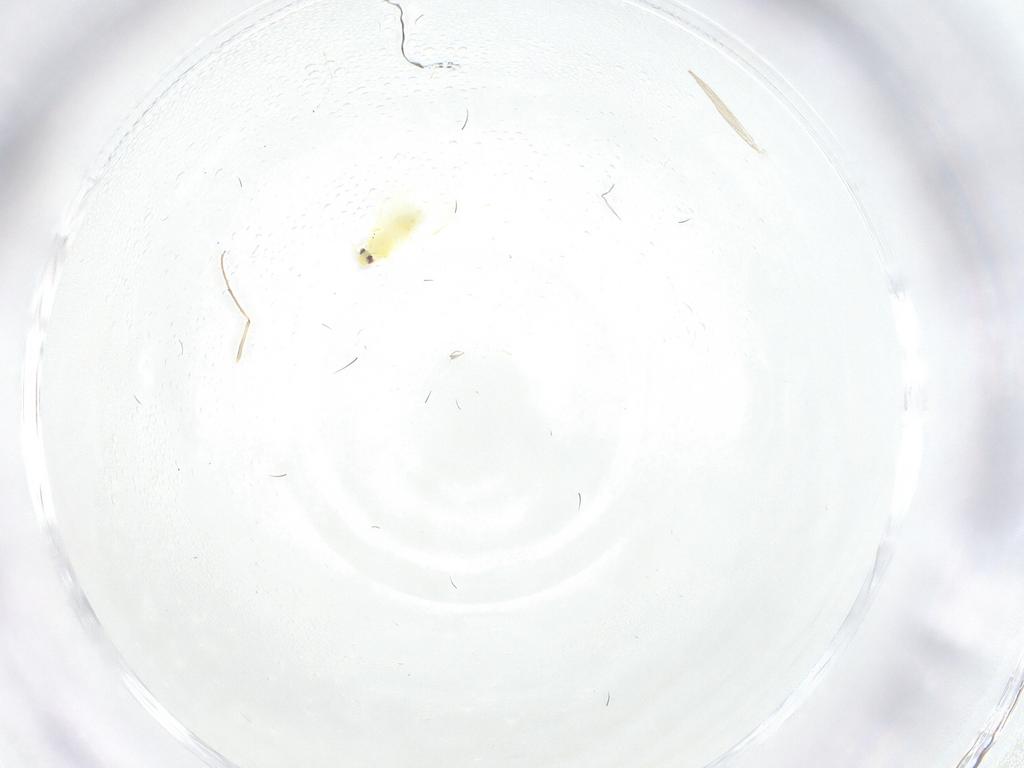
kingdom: Animalia
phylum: Arthropoda
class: Insecta
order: Hemiptera
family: Aleyrodidae
